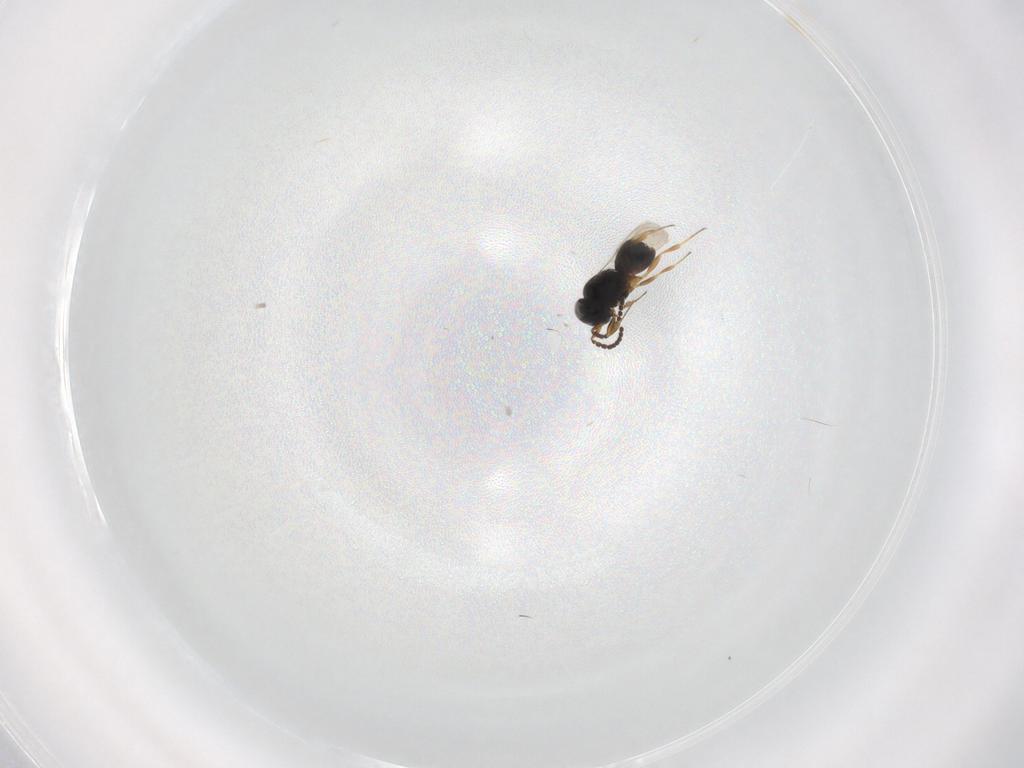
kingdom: Animalia
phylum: Arthropoda
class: Insecta
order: Hymenoptera
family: Scelionidae
